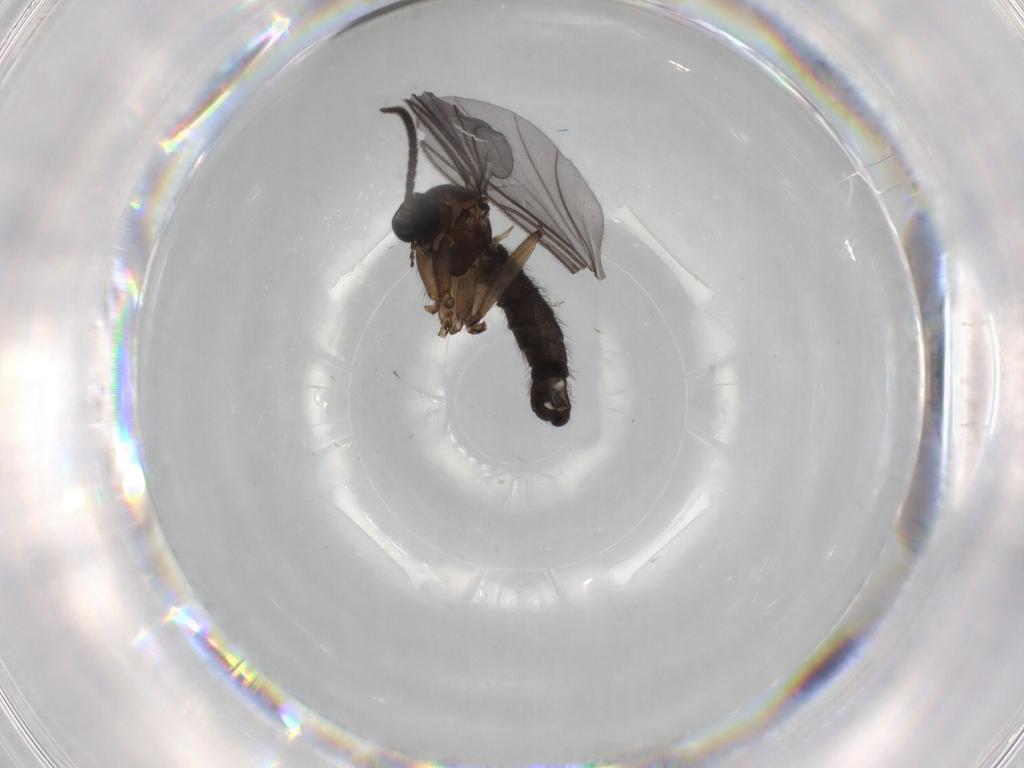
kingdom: Animalia
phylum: Arthropoda
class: Insecta
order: Diptera
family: Sciaridae
